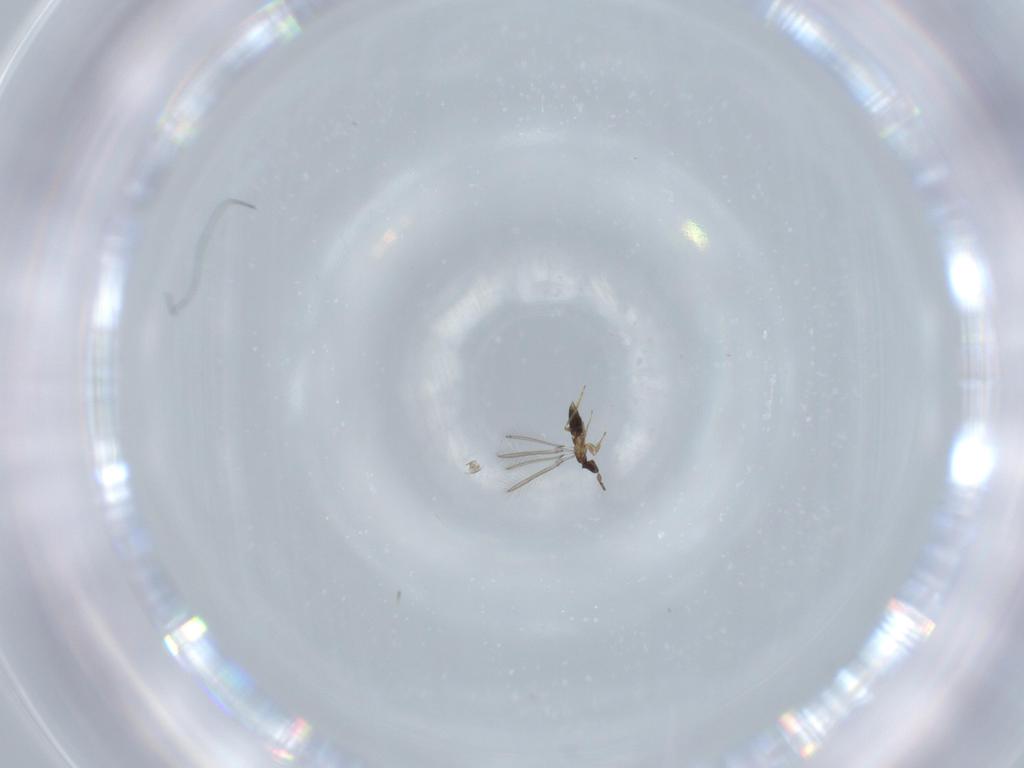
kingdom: Animalia
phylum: Arthropoda
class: Insecta
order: Hymenoptera
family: Mymaridae
